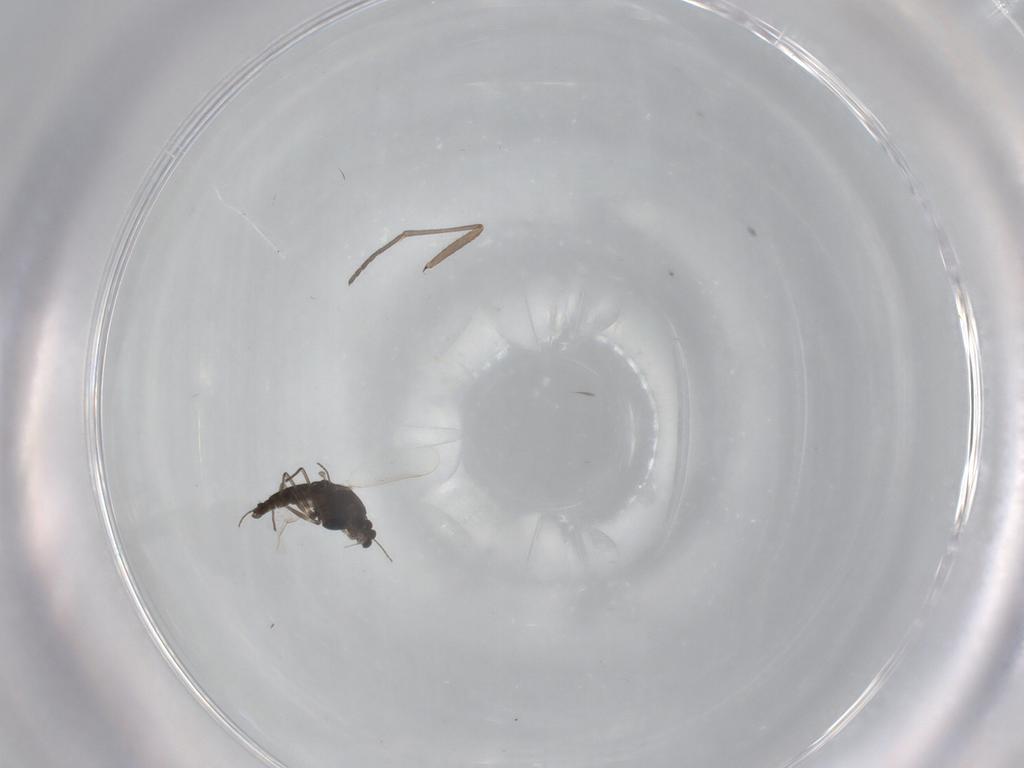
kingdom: Animalia
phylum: Arthropoda
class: Insecta
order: Diptera
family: Chironomidae
